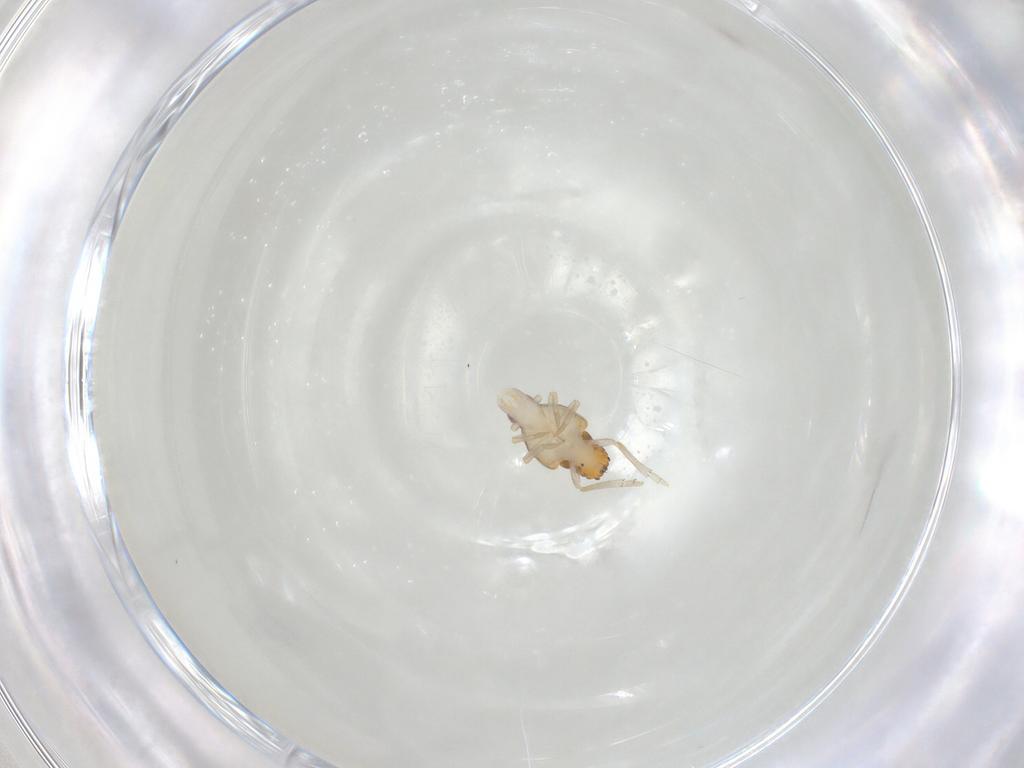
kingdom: Animalia
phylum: Arthropoda
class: Insecta
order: Hemiptera
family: Tropiduchidae
